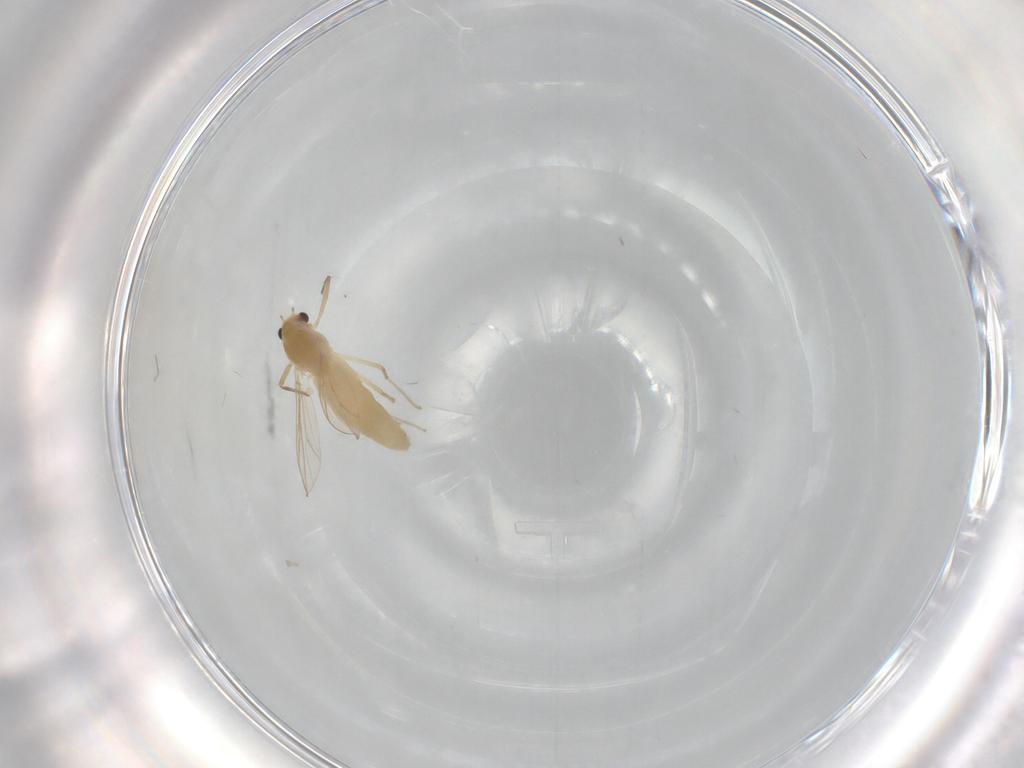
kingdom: Animalia
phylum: Arthropoda
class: Insecta
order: Diptera
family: Chironomidae
